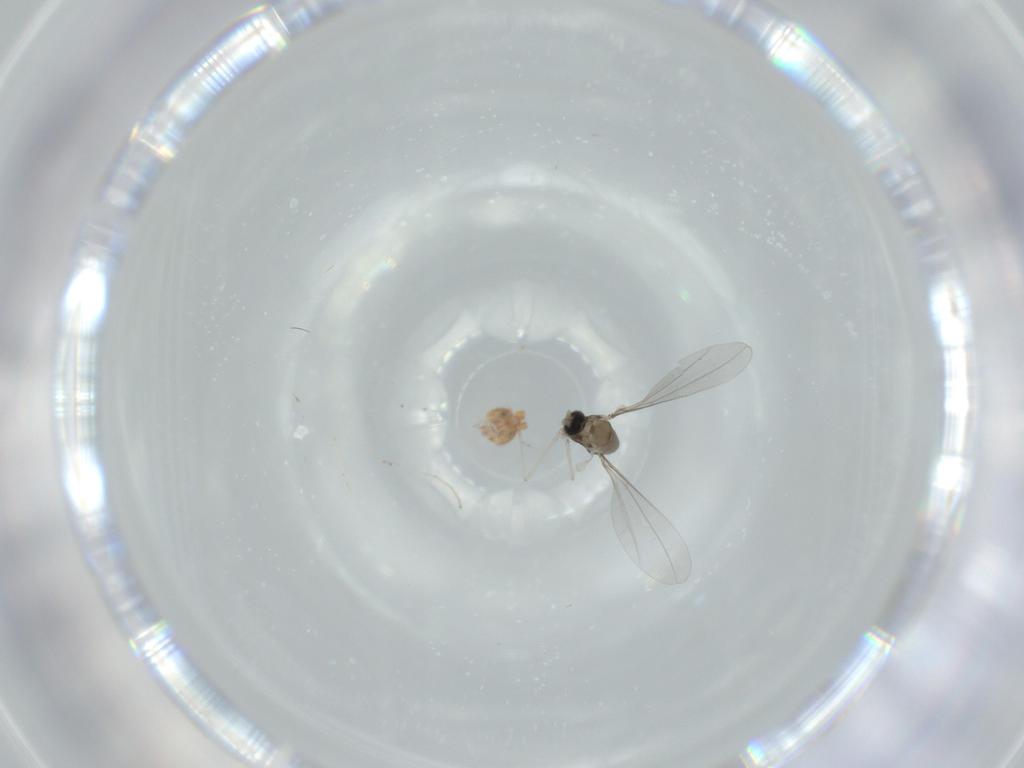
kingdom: Animalia
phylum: Arthropoda
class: Insecta
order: Diptera
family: Cecidomyiidae
